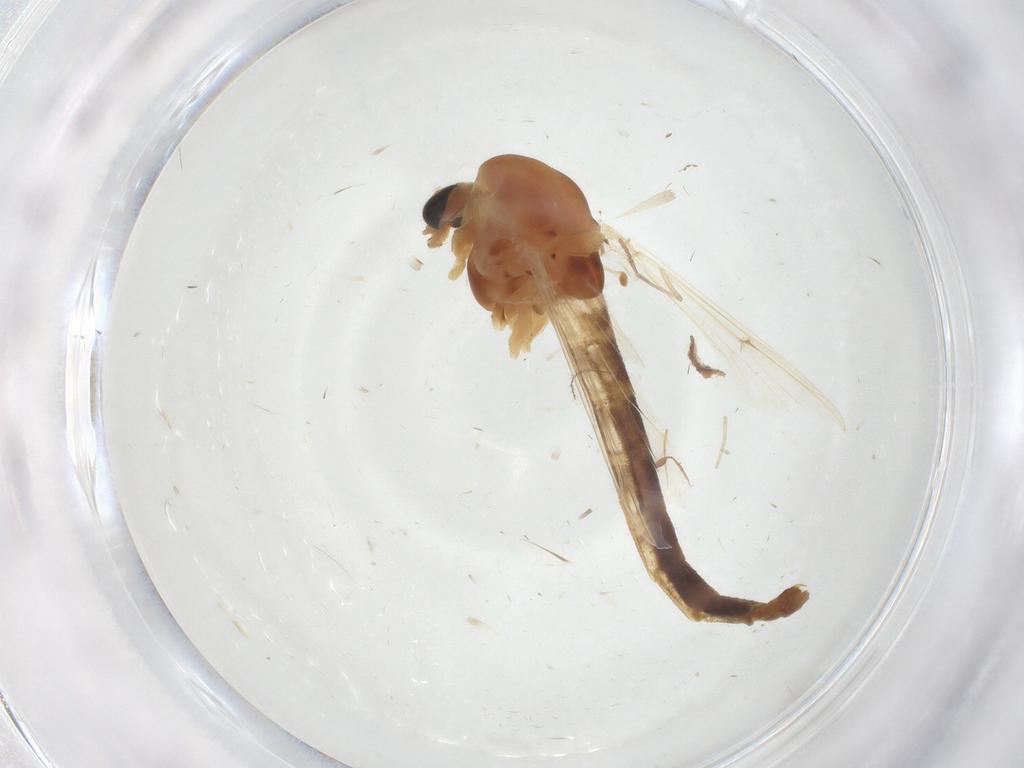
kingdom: Animalia
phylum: Arthropoda
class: Insecta
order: Diptera
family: Cecidomyiidae
